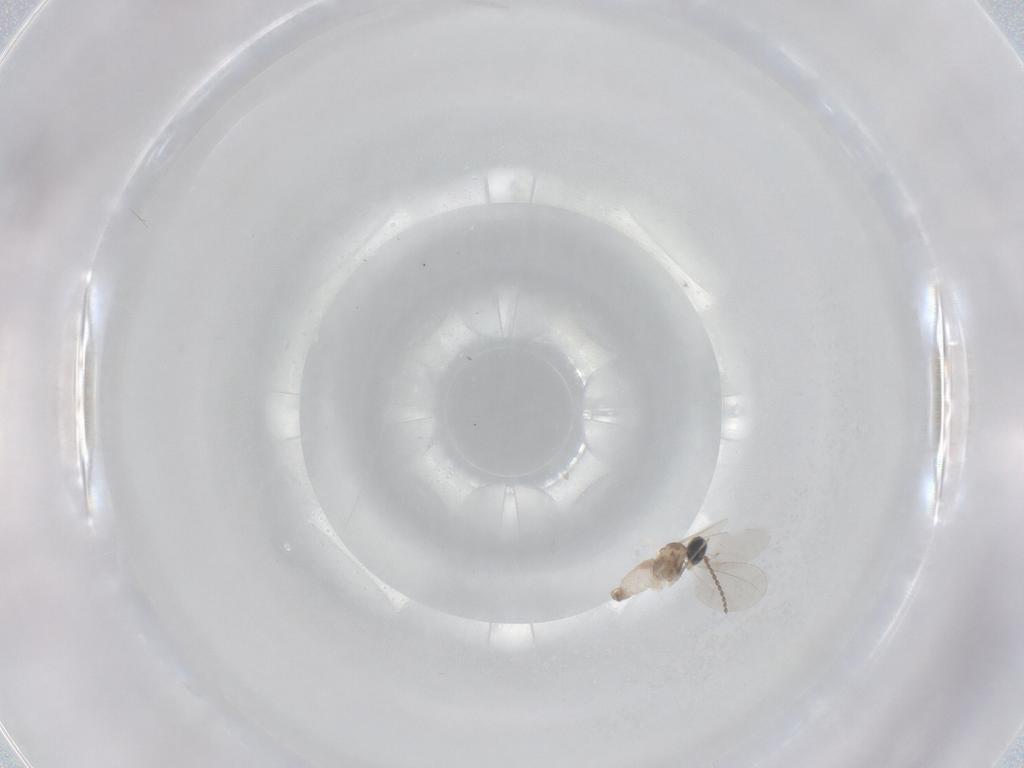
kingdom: Animalia
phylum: Arthropoda
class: Insecta
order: Diptera
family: Cecidomyiidae
